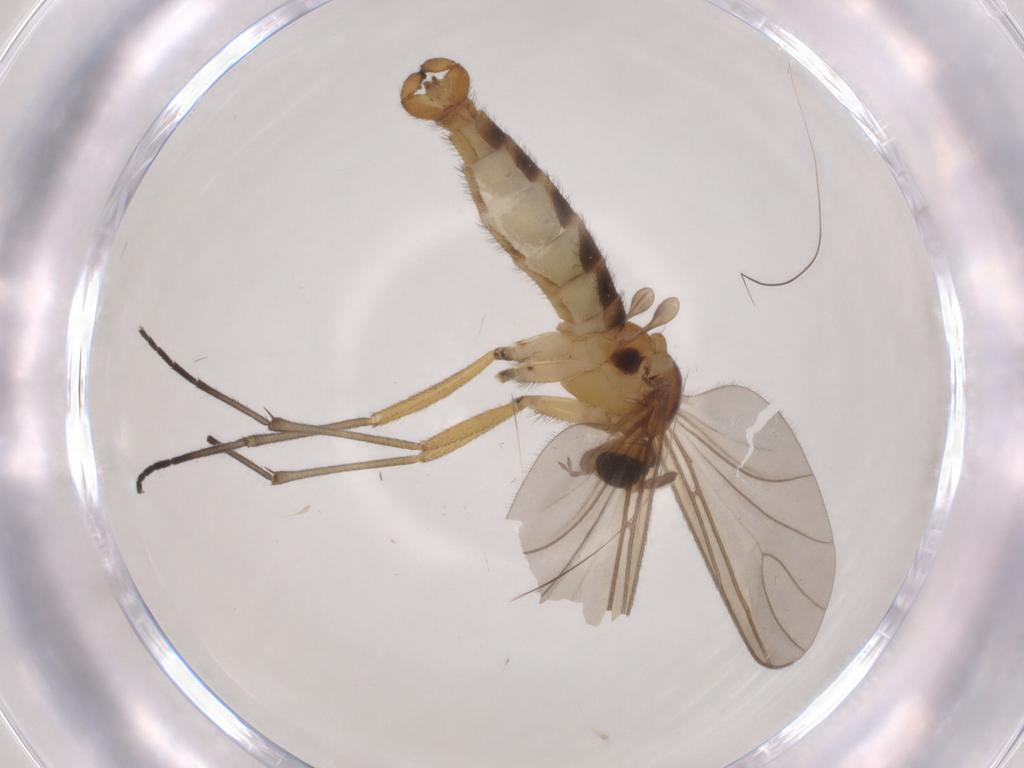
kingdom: Animalia
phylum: Arthropoda
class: Insecta
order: Diptera
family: Sciaridae
